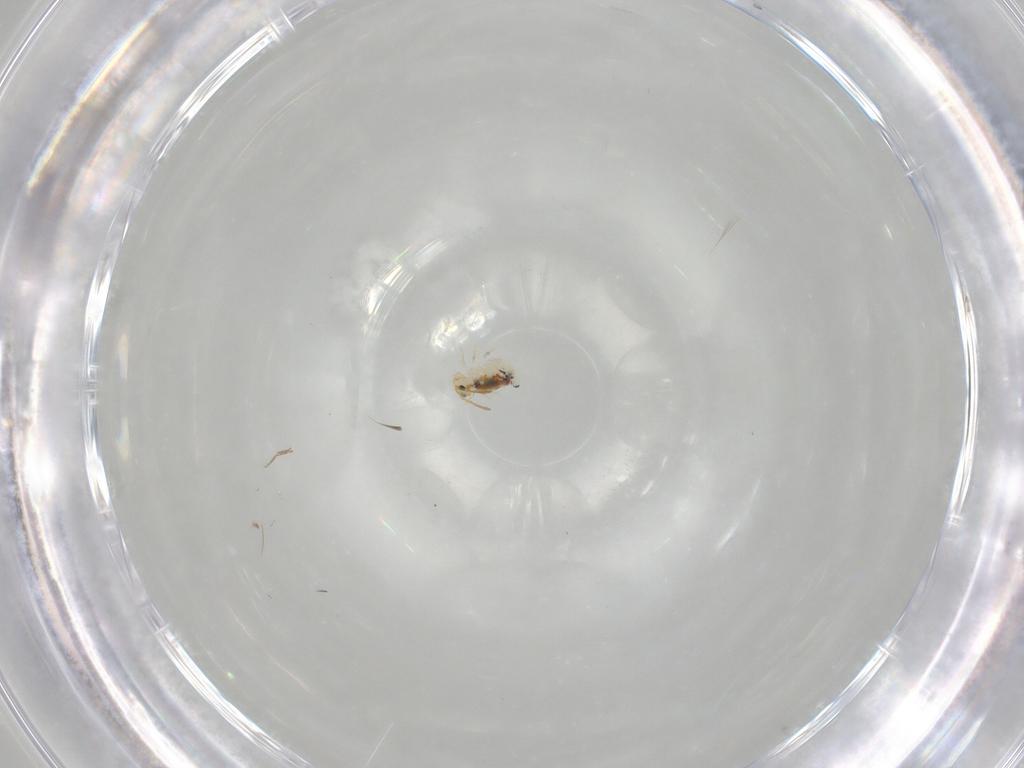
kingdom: Animalia
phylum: Arthropoda
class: Collembola
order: Symphypleona
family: Bourletiellidae
